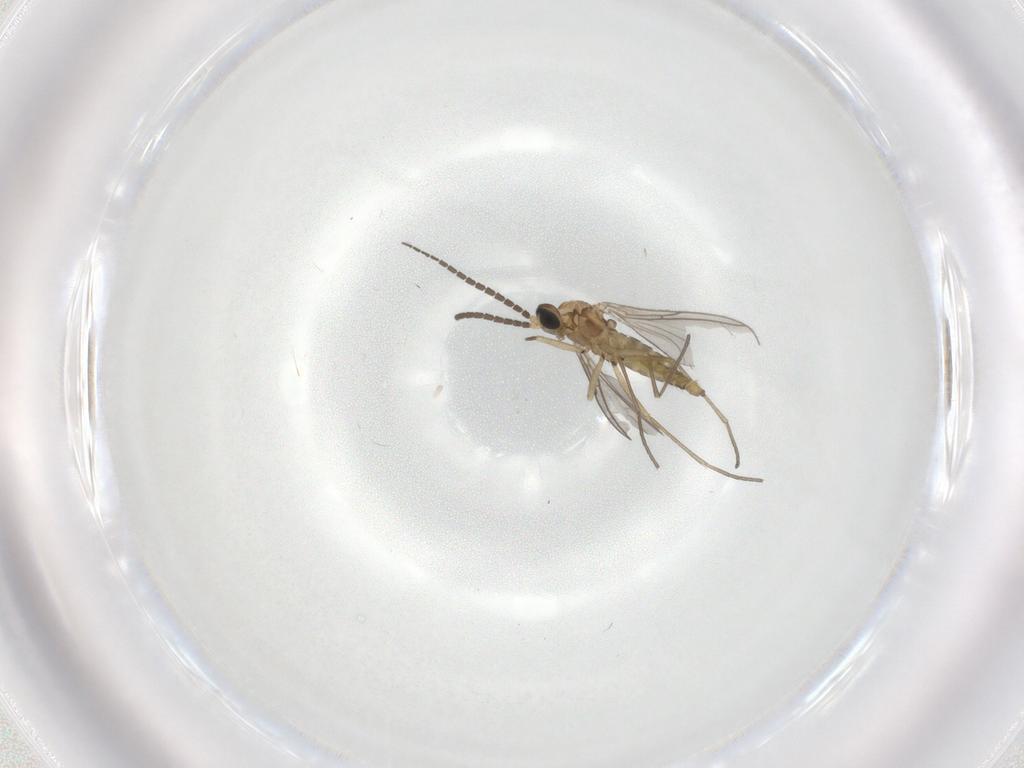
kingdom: Animalia
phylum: Arthropoda
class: Insecta
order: Diptera
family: Sciaridae
